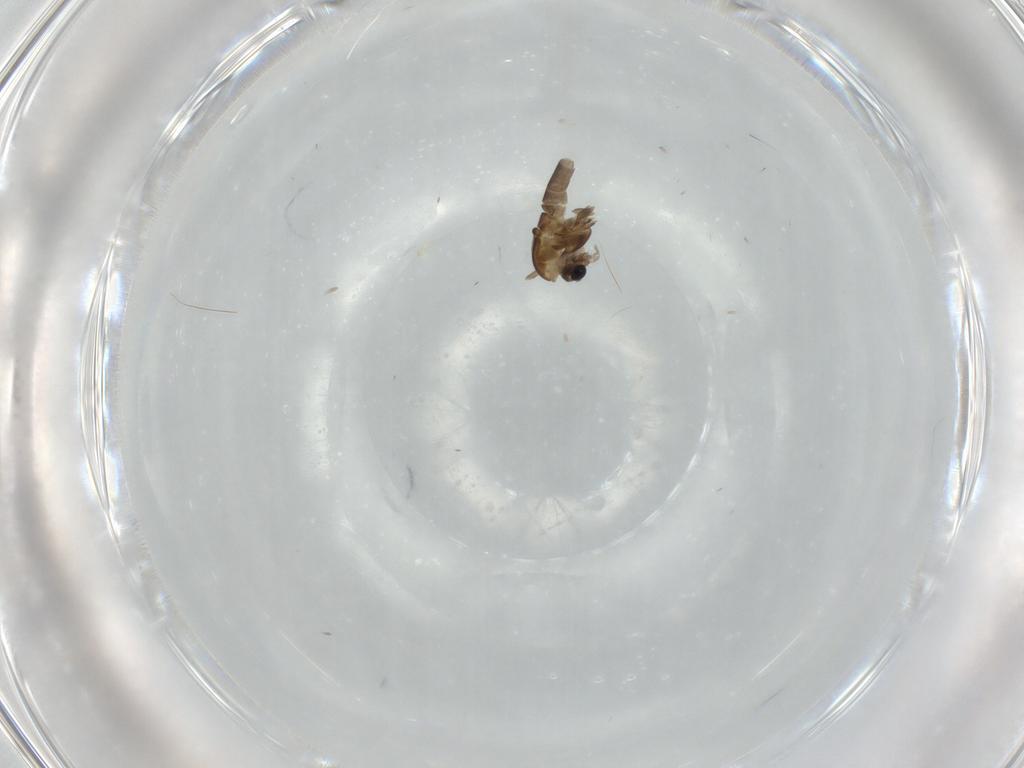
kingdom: Animalia
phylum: Arthropoda
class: Insecta
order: Diptera
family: Chironomidae
